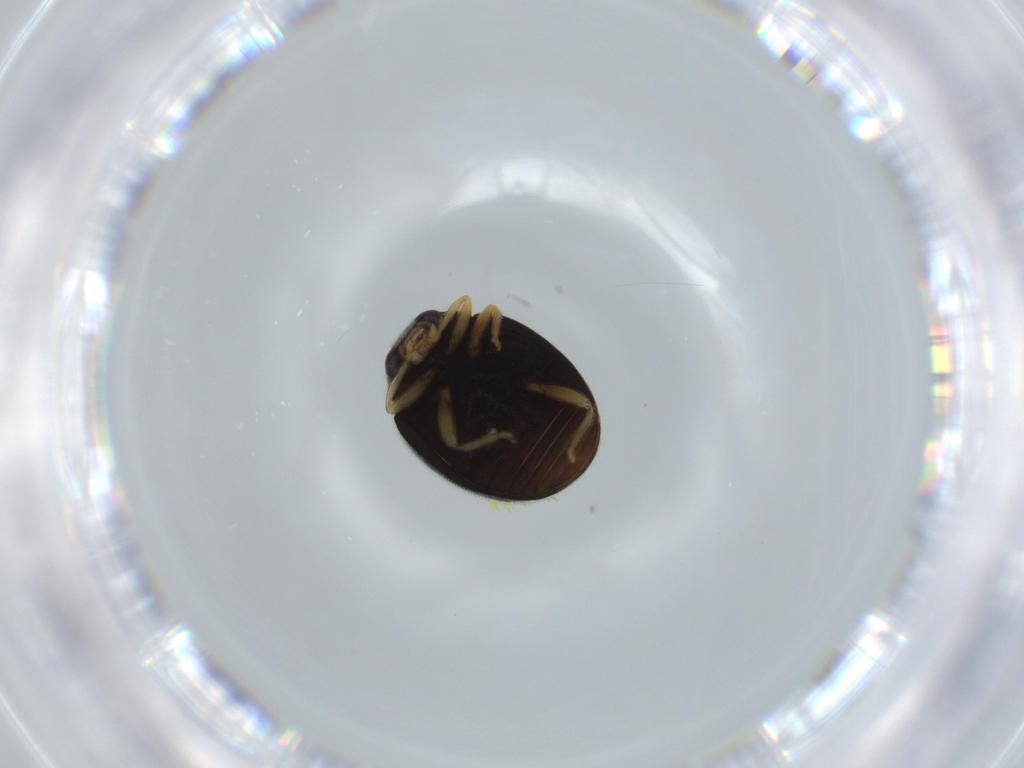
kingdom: Animalia
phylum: Arthropoda
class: Insecta
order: Coleoptera
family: Coccinellidae
